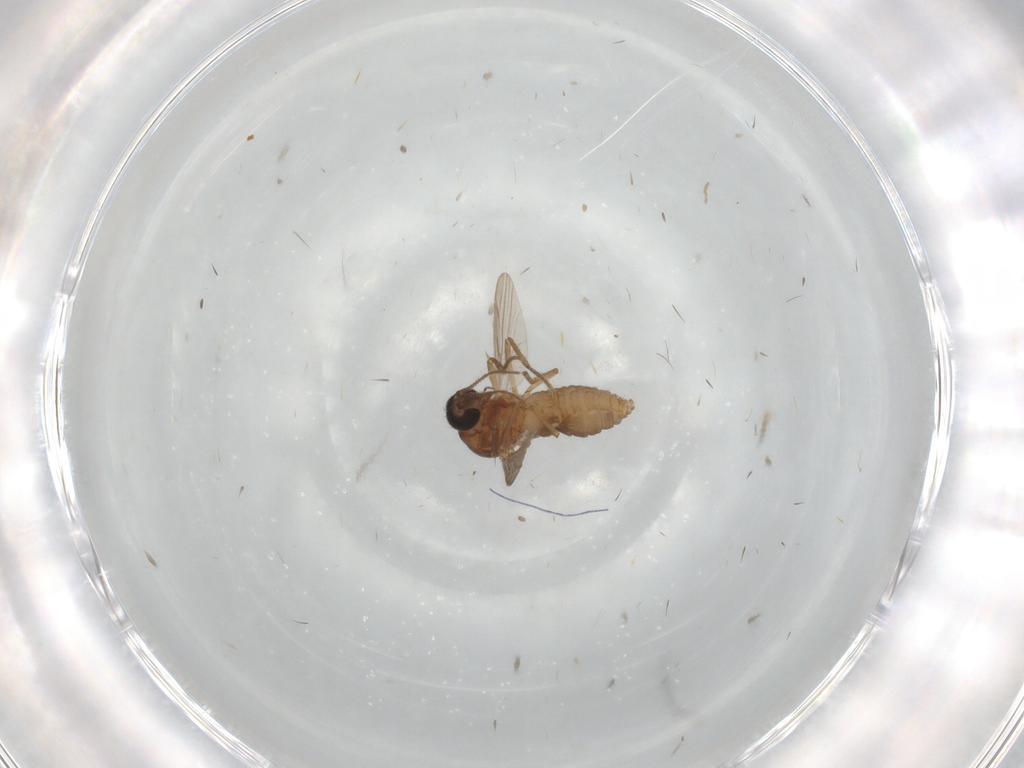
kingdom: Animalia
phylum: Arthropoda
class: Insecta
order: Diptera
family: Ceratopogonidae
